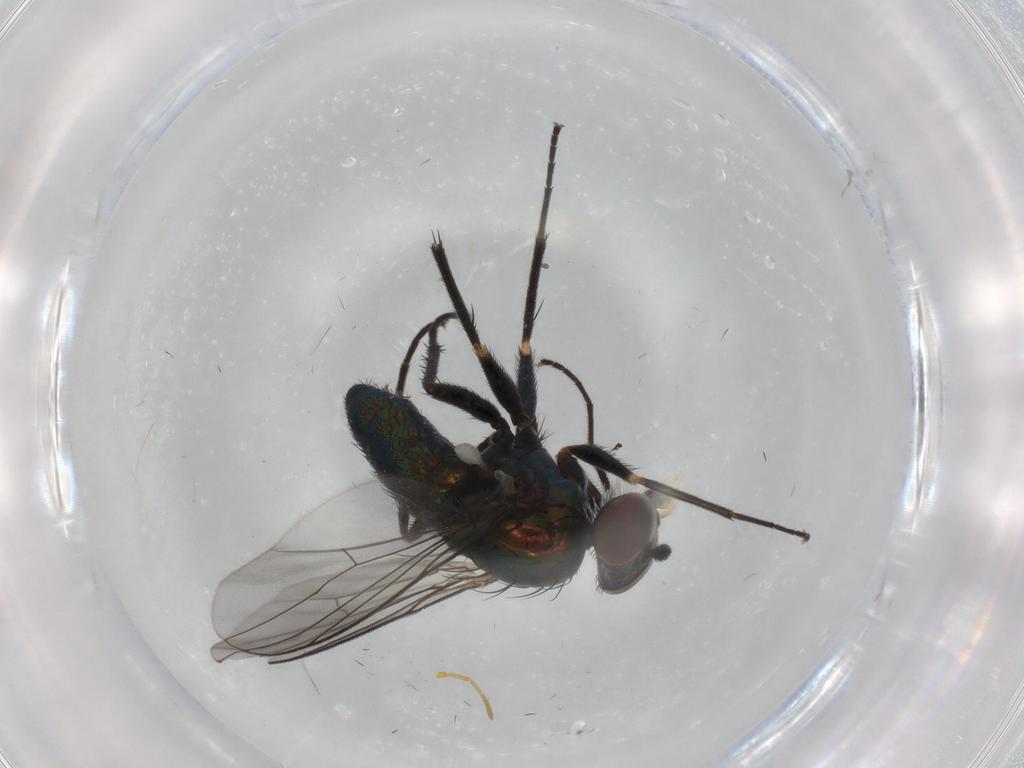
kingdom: Animalia
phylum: Arthropoda
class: Insecta
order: Diptera
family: Dolichopodidae
